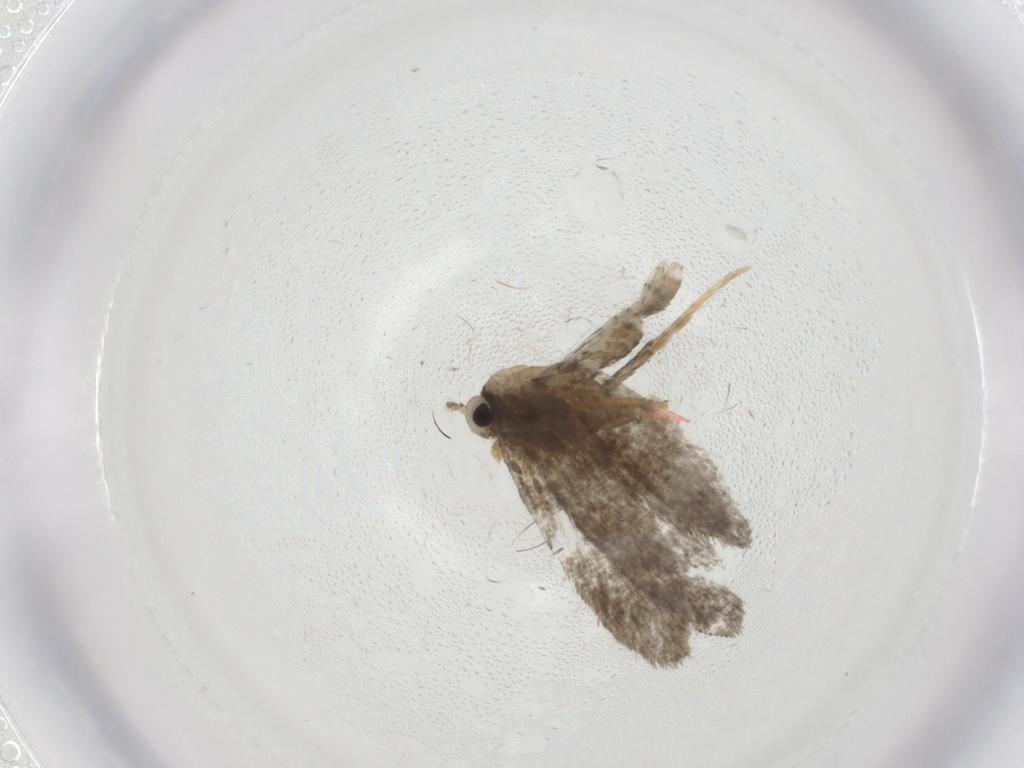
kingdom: Animalia
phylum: Arthropoda
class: Insecta
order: Lepidoptera
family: Psychidae
